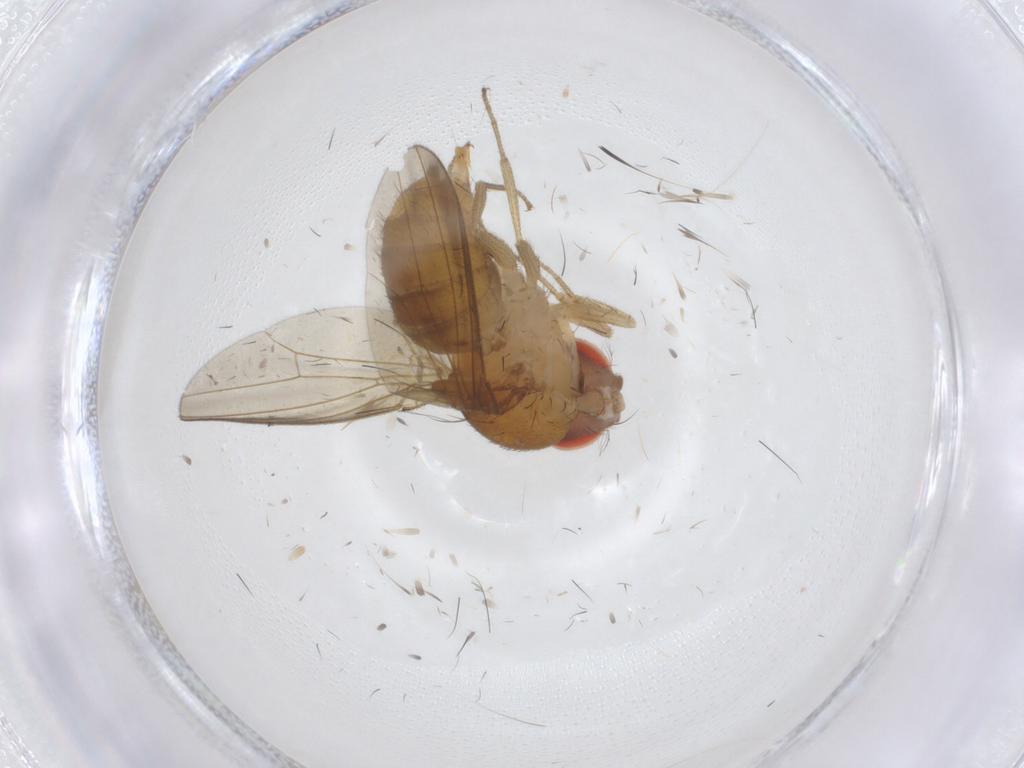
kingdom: Animalia
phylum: Arthropoda
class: Insecta
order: Diptera
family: Drosophilidae
